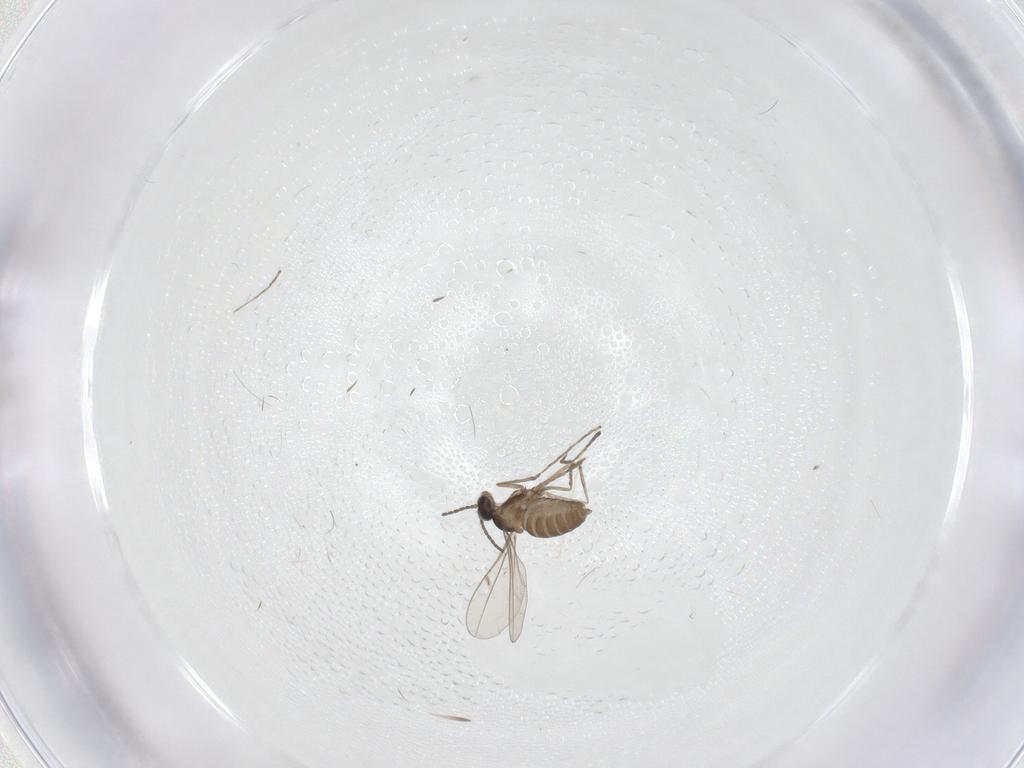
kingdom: Animalia
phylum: Arthropoda
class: Insecta
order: Diptera
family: Cecidomyiidae
